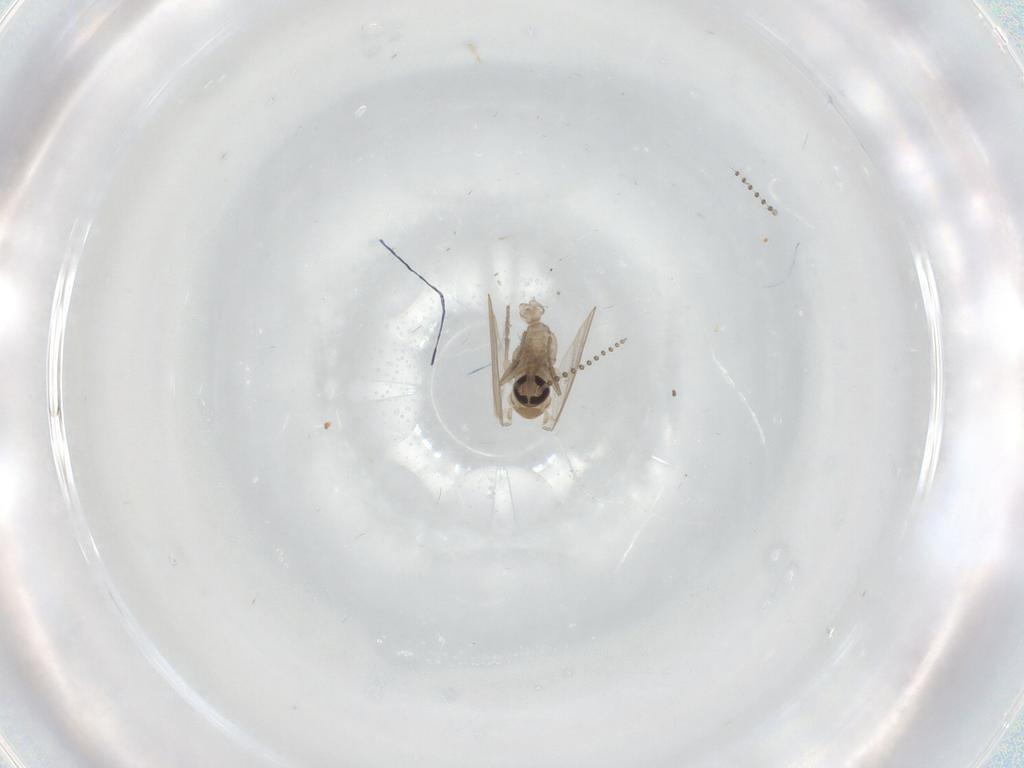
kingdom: Animalia
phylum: Arthropoda
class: Insecta
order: Diptera
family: Psychodidae
